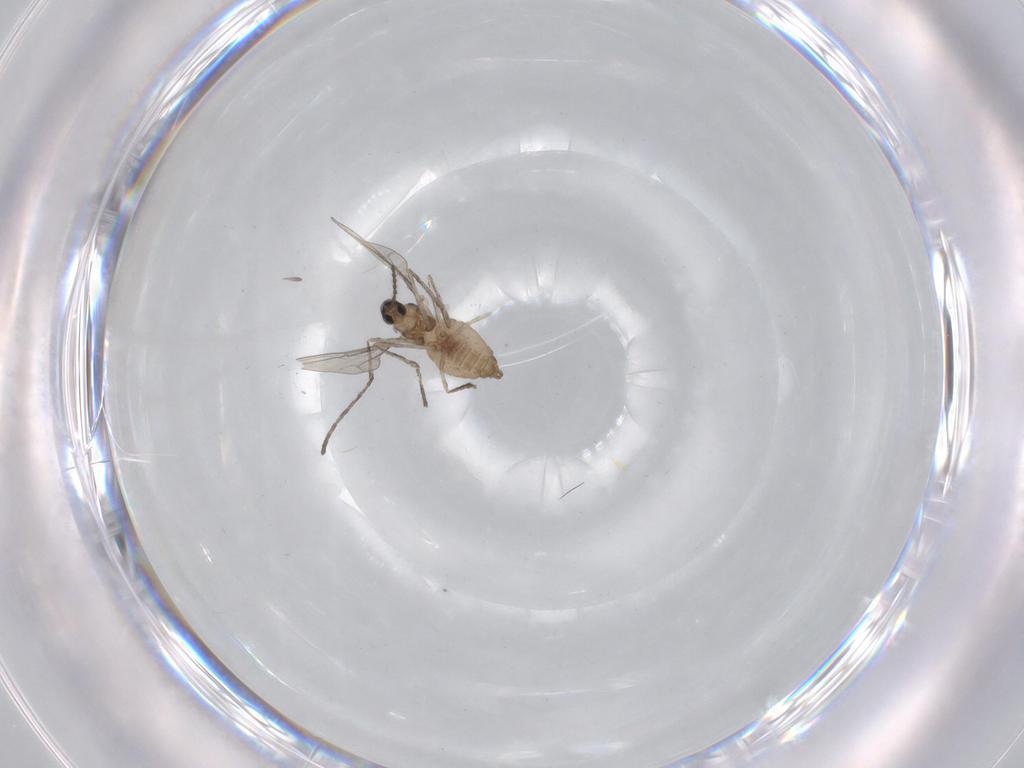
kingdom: Animalia
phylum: Arthropoda
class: Insecta
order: Diptera
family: Cecidomyiidae
